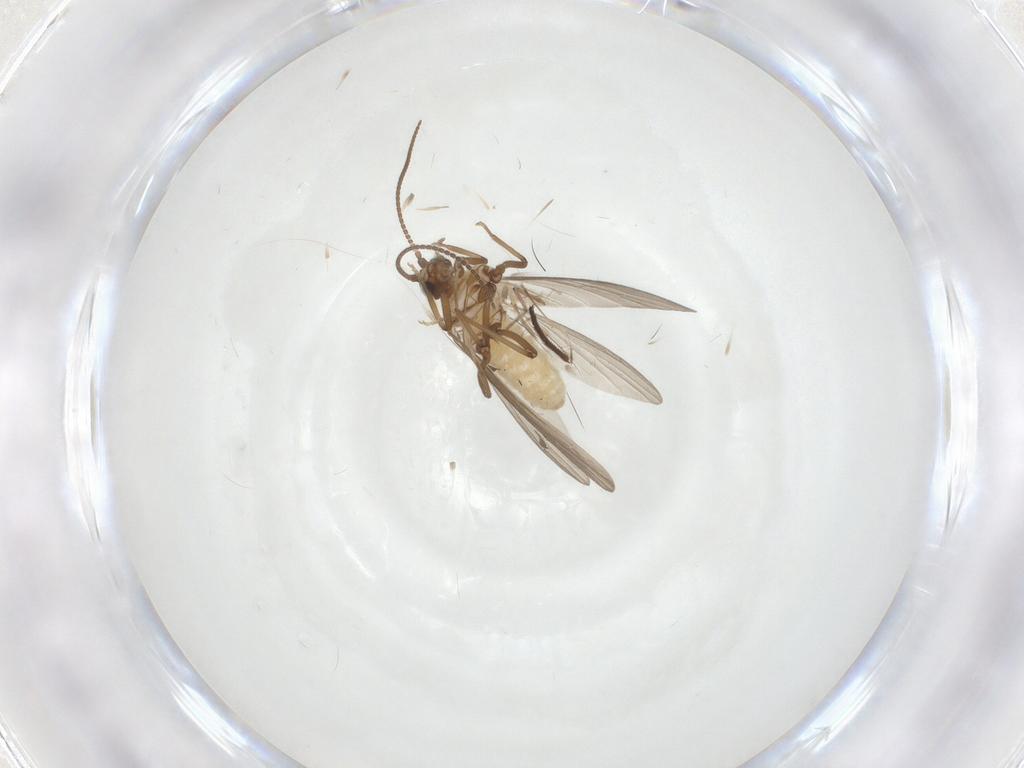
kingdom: Animalia
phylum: Arthropoda
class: Insecta
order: Neuroptera
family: Coniopterygidae
